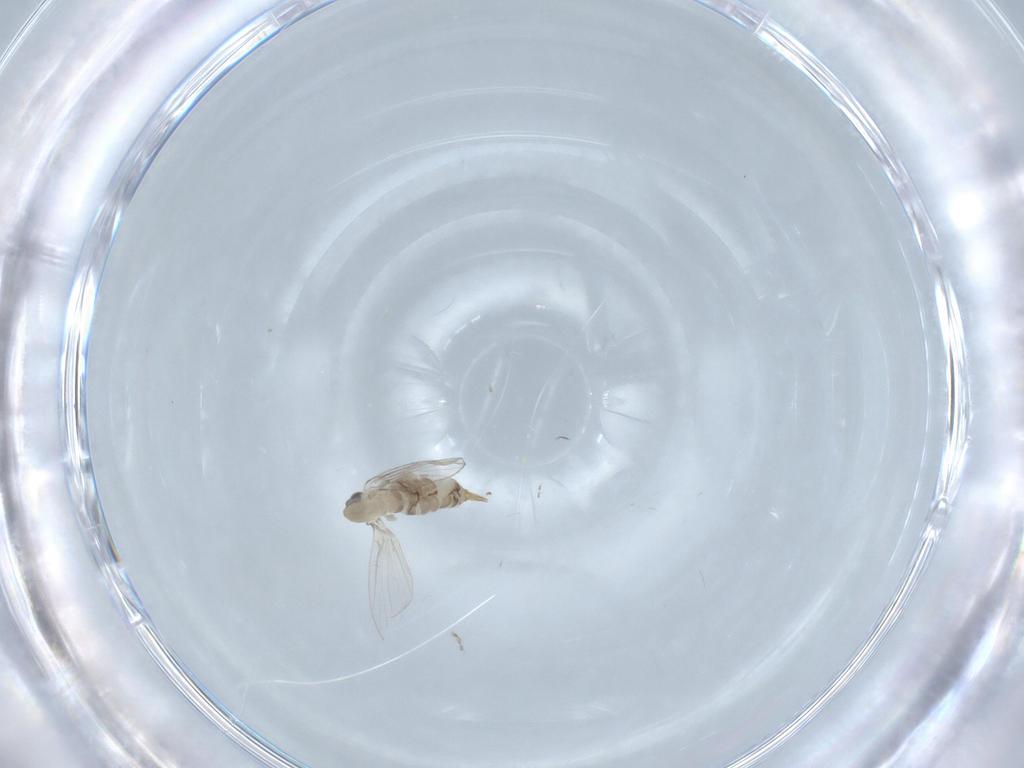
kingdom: Animalia
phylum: Arthropoda
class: Insecta
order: Diptera
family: Psychodidae
